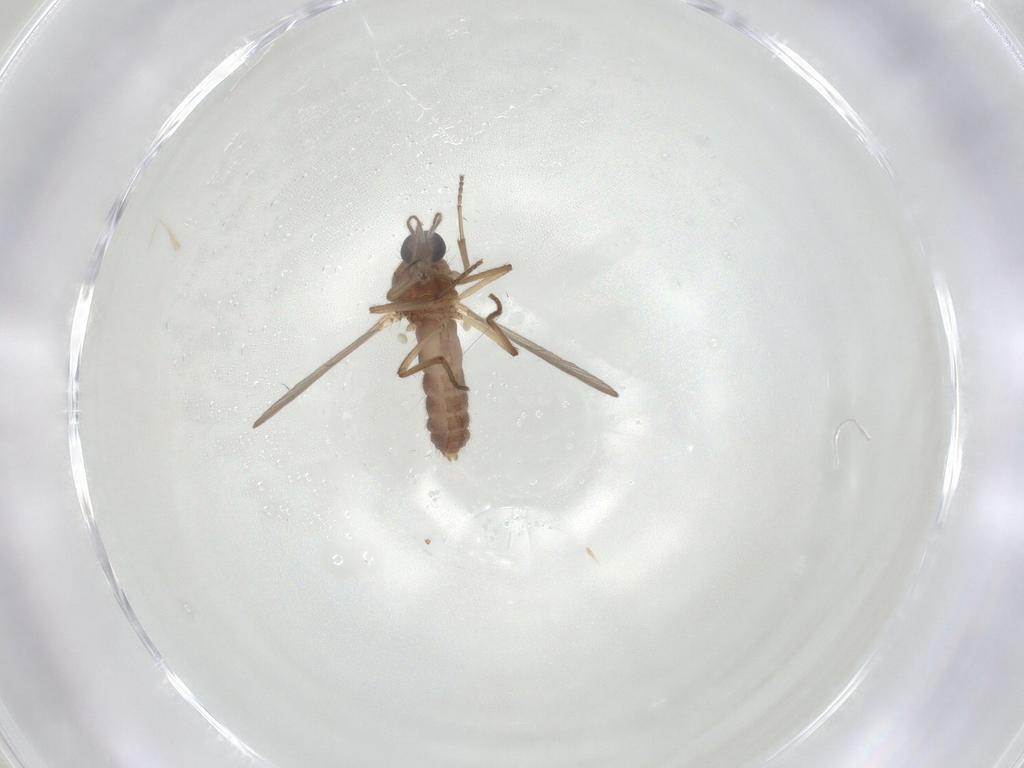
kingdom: Animalia
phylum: Arthropoda
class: Insecta
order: Diptera
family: Ceratopogonidae
